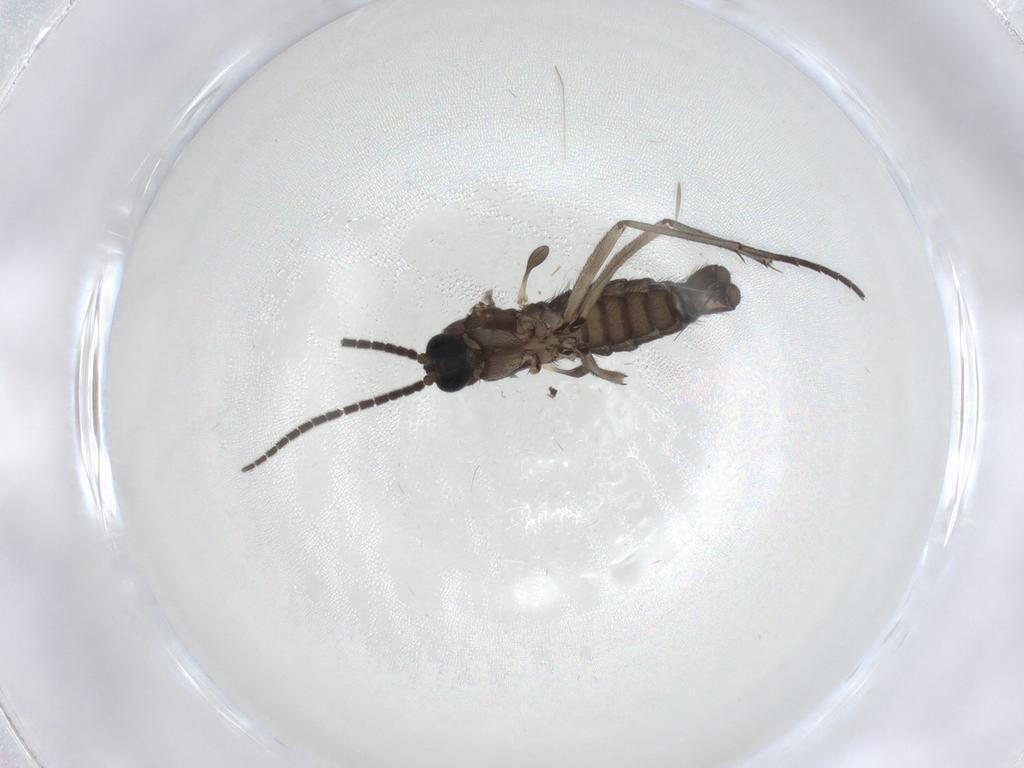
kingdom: Animalia
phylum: Arthropoda
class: Insecta
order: Diptera
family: Sciaridae
